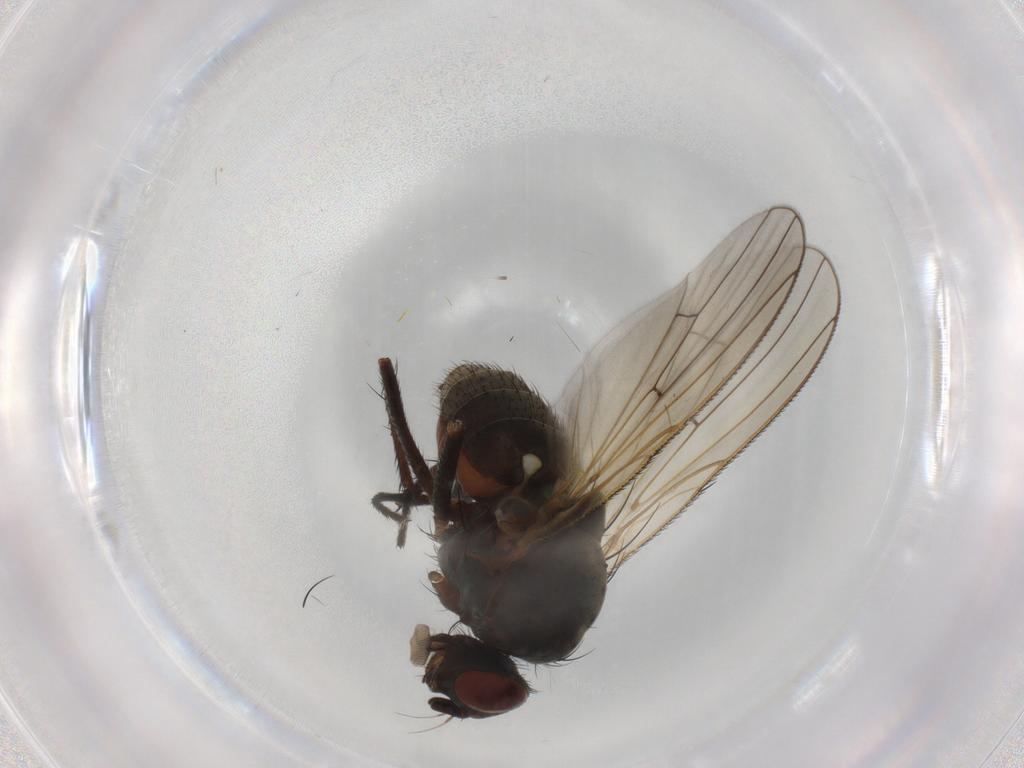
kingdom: Animalia
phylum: Arthropoda
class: Insecta
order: Diptera
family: Anthomyiidae
